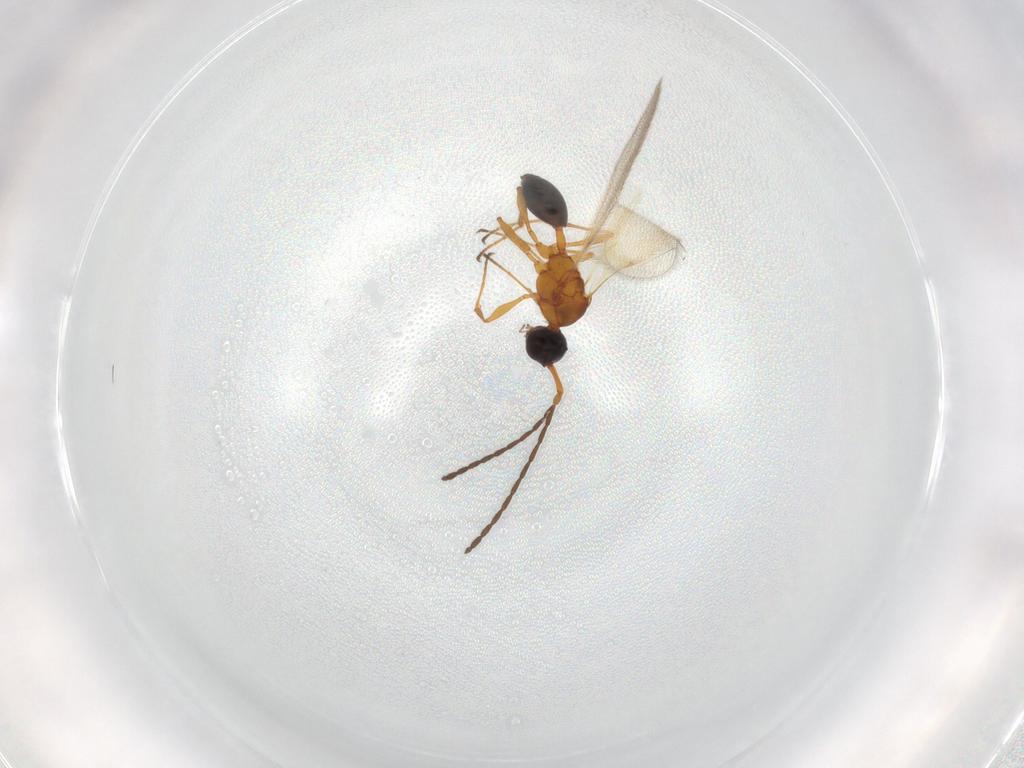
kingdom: Animalia
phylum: Arthropoda
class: Insecta
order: Hymenoptera
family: Diapriidae
